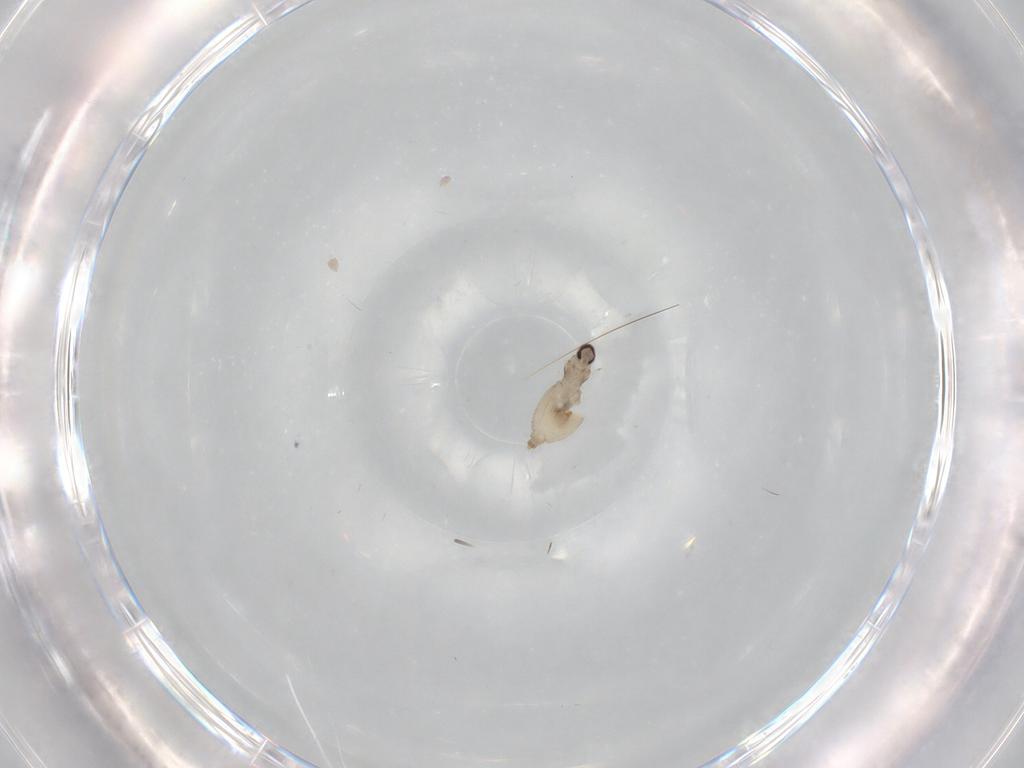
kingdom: Animalia
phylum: Arthropoda
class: Insecta
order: Diptera
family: Cecidomyiidae
